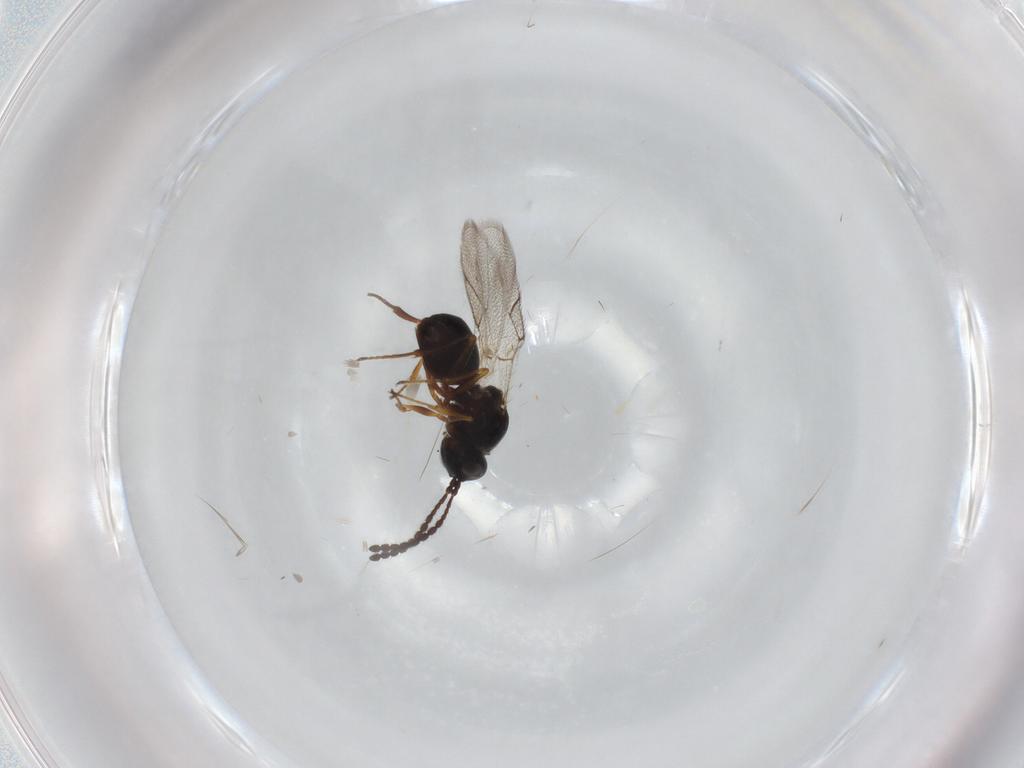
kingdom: Animalia
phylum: Arthropoda
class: Insecta
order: Hymenoptera
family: Figitidae
